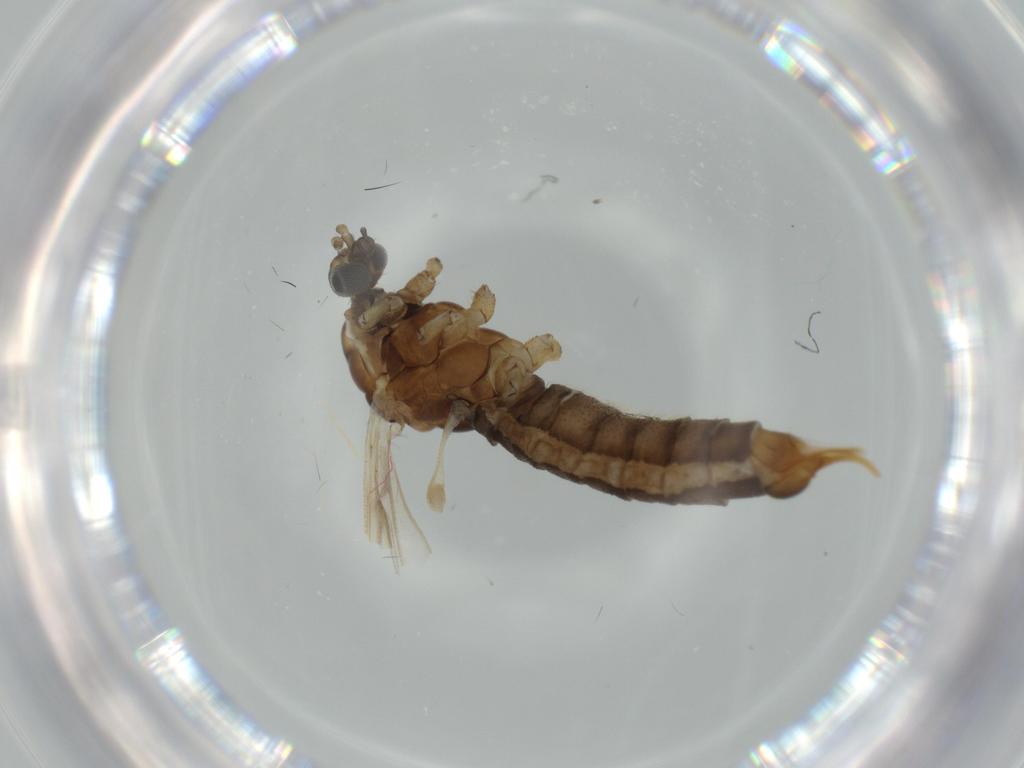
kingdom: Animalia
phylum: Arthropoda
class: Insecta
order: Diptera
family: Limoniidae
